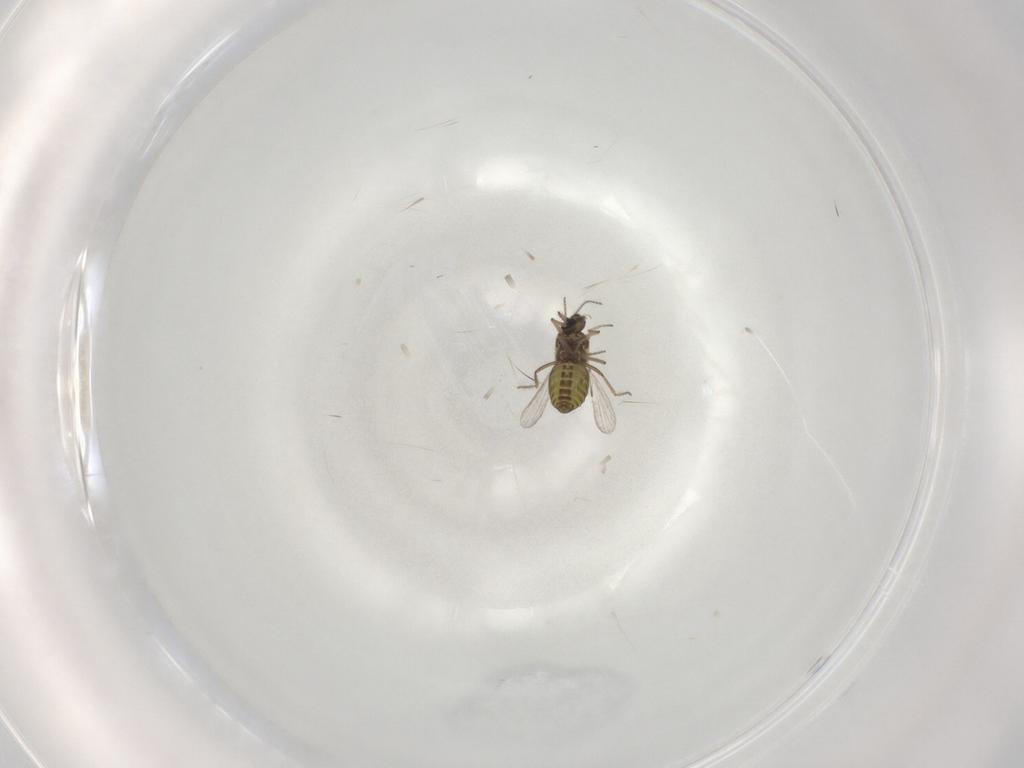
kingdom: Animalia
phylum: Arthropoda
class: Insecta
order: Diptera
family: Ceratopogonidae
